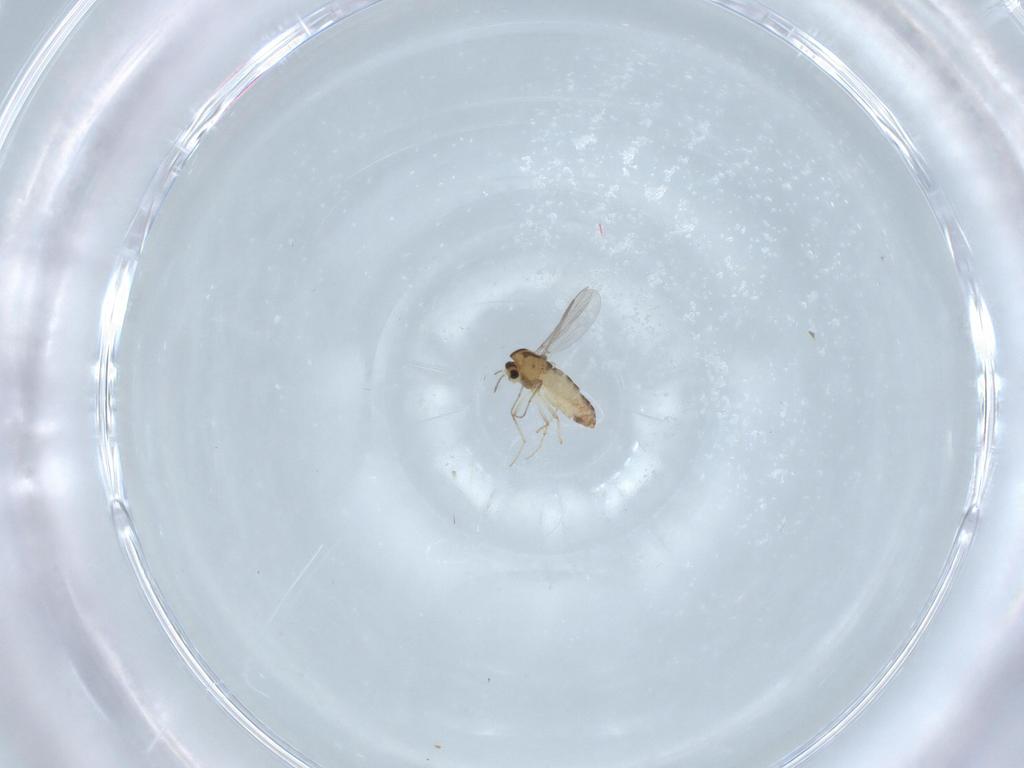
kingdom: Animalia
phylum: Arthropoda
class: Insecta
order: Diptera
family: Chironomidae
